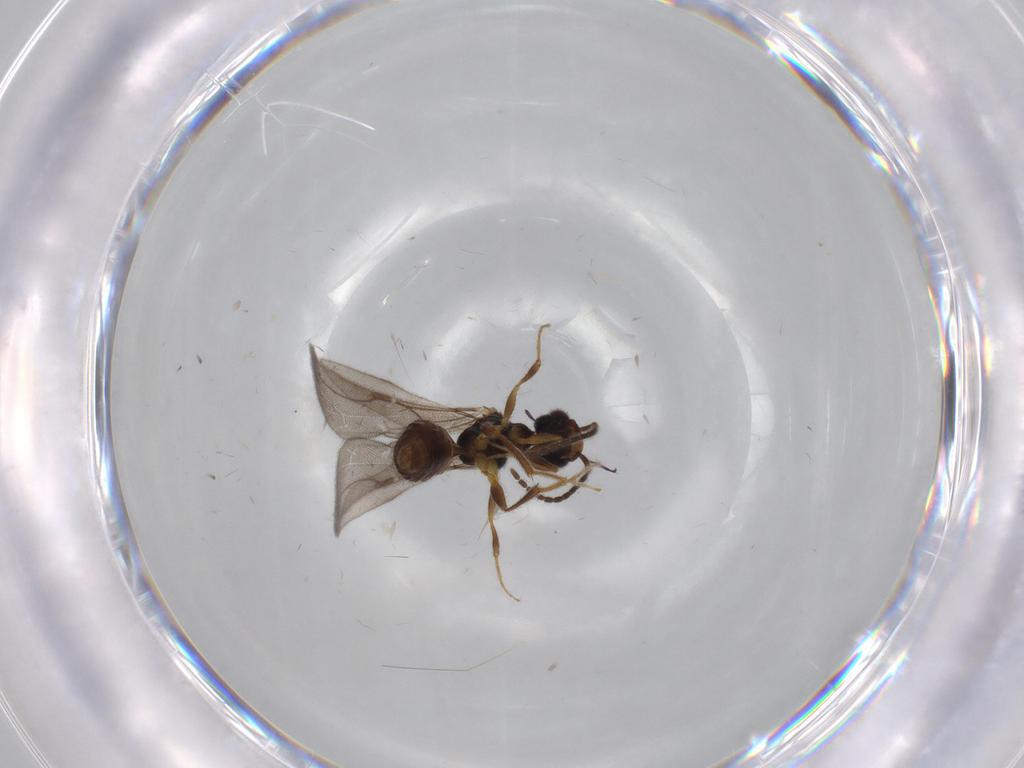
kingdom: Animalia
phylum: Arthropoda
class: Insecta
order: Hymenoptera
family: Bethylidae
